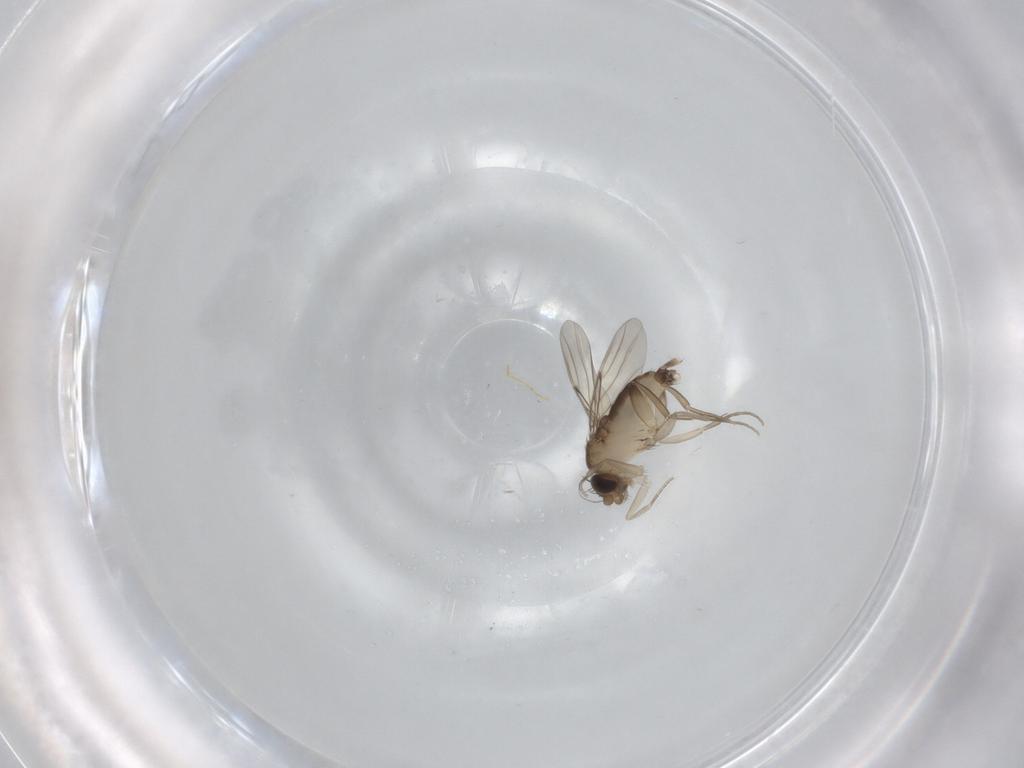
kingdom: Animalia
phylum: Arthropoda
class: Insecta
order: Diptera
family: Phoridae
